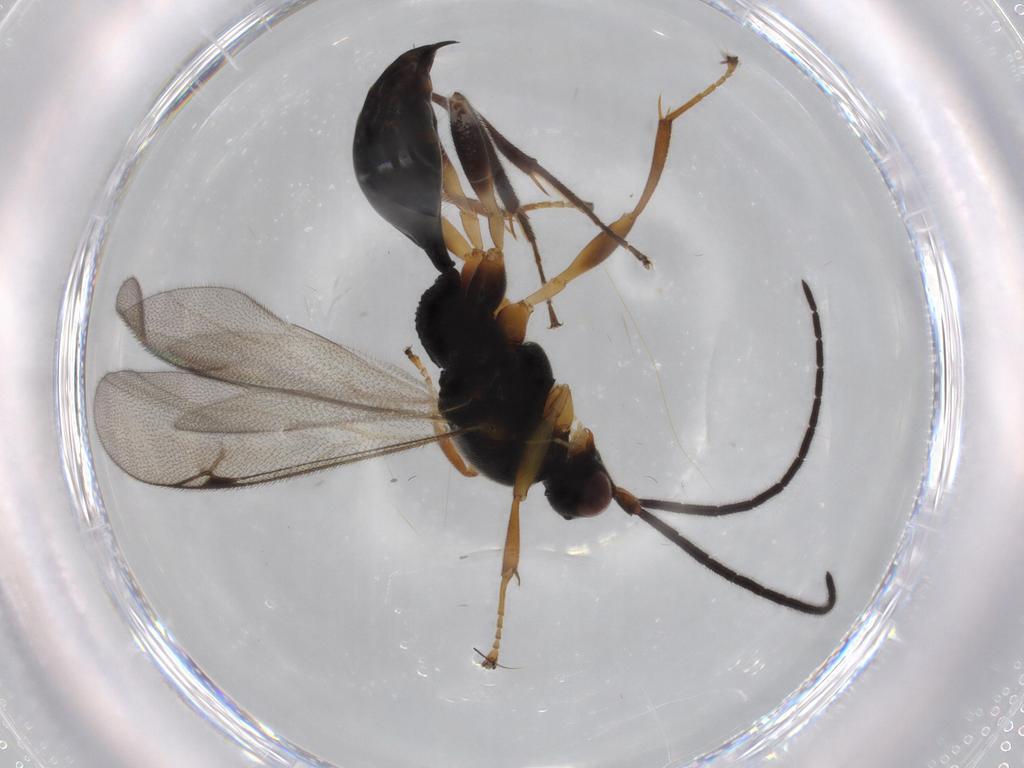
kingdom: Animalia
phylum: Arthropoda
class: Insecta
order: Hymenoptera
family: Proctotrupidae
